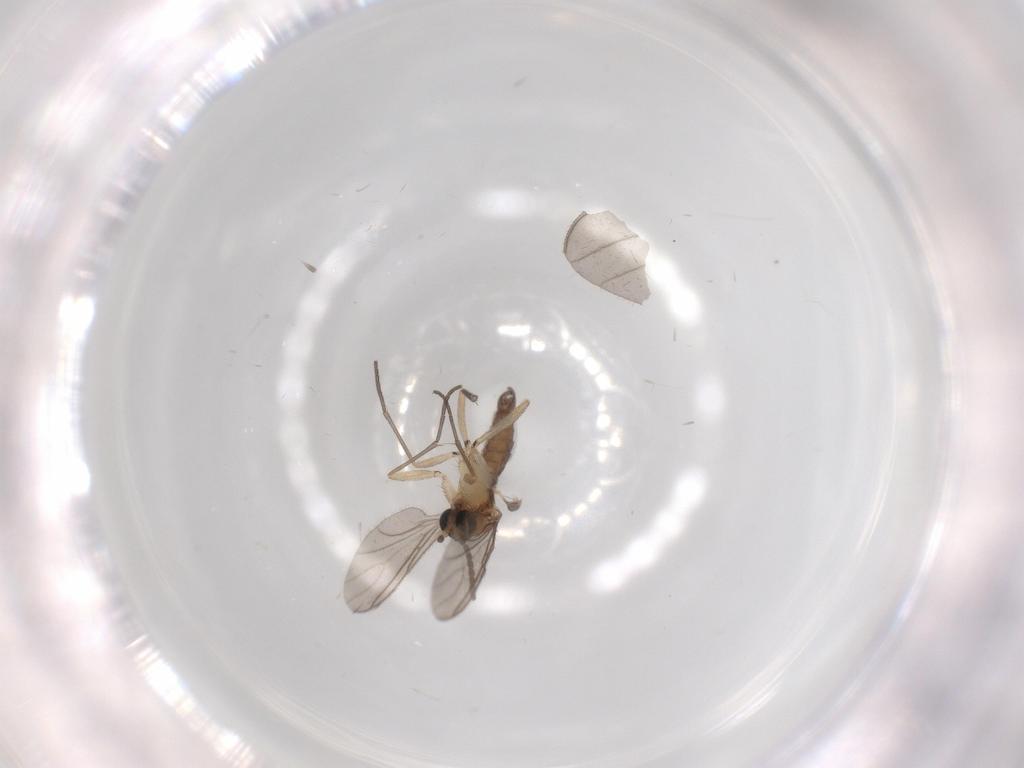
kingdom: Animalia
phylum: Arthropoda
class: Insecta
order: Diptera
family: Sciaridae
